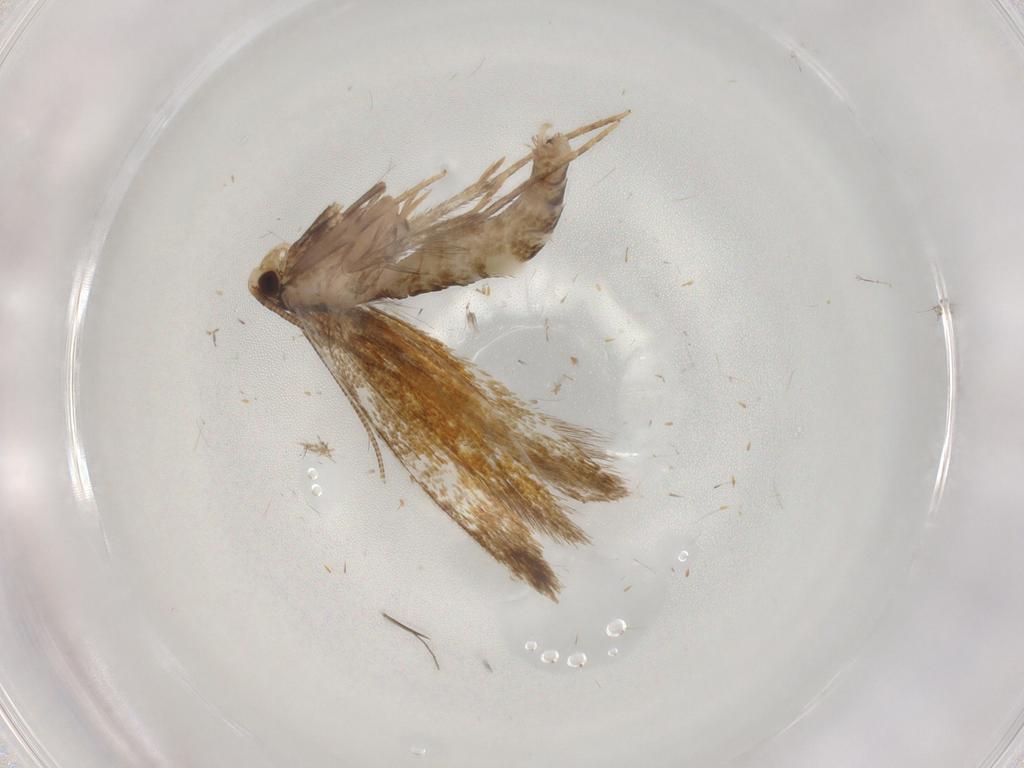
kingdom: Animalia
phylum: Arthropoda
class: Insecta
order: Lepidoptera
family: Tineidae
